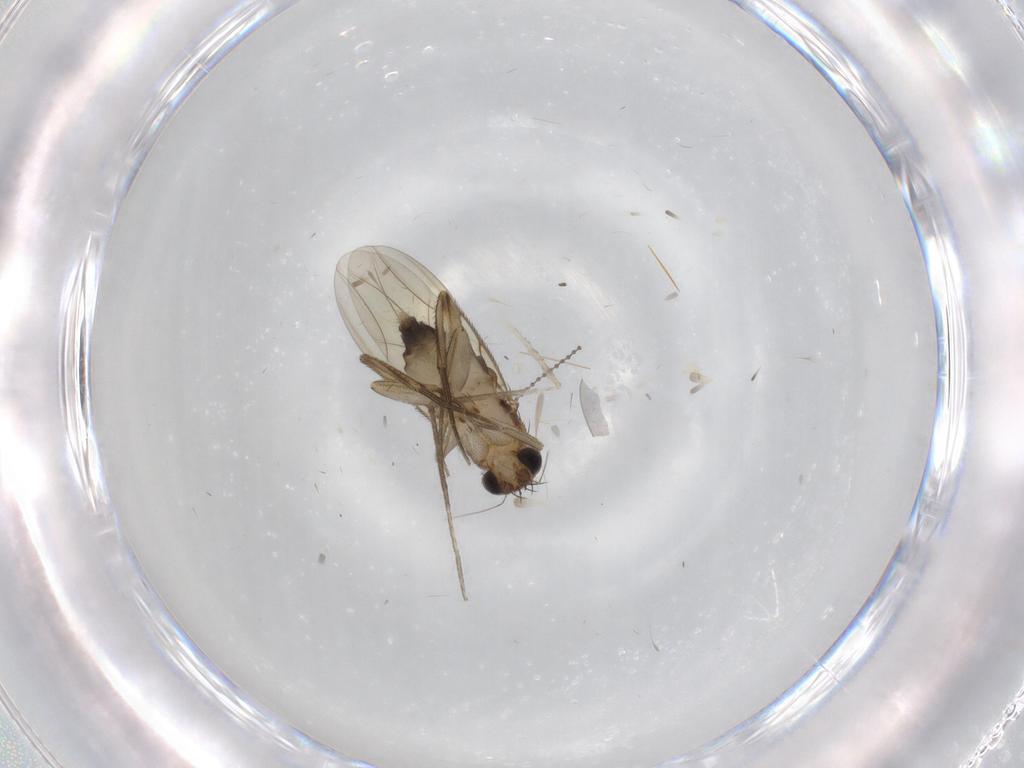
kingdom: Animalia
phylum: Arthropoda
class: Insecta
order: Diptera
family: Phoridae
